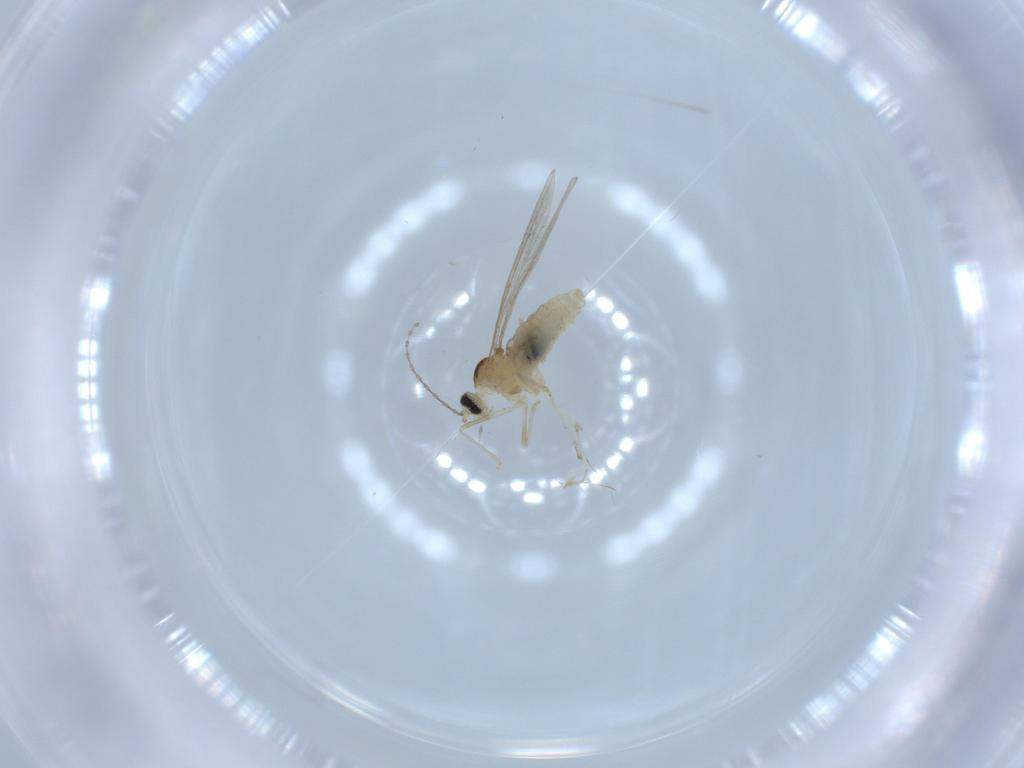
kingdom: Animalia
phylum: Arthropoda
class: Insecta
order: Diptera
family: Cecidomyiidae
